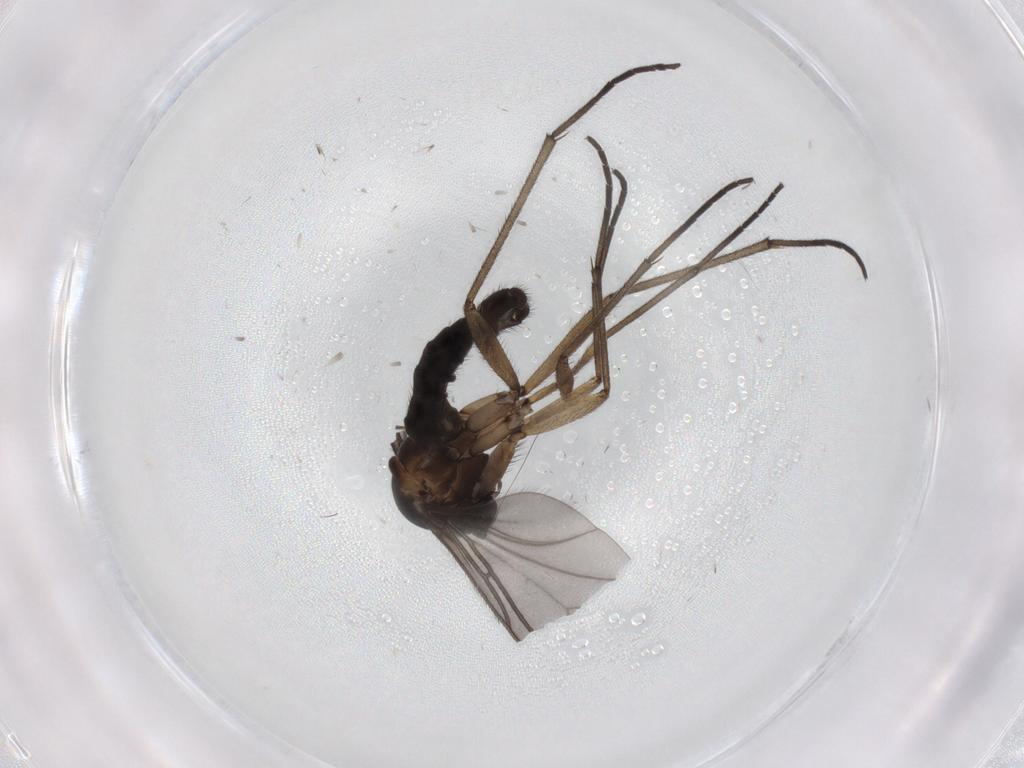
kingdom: Animalia
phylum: Arthropoda
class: Insecta
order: Diptera
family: Sciaridae
